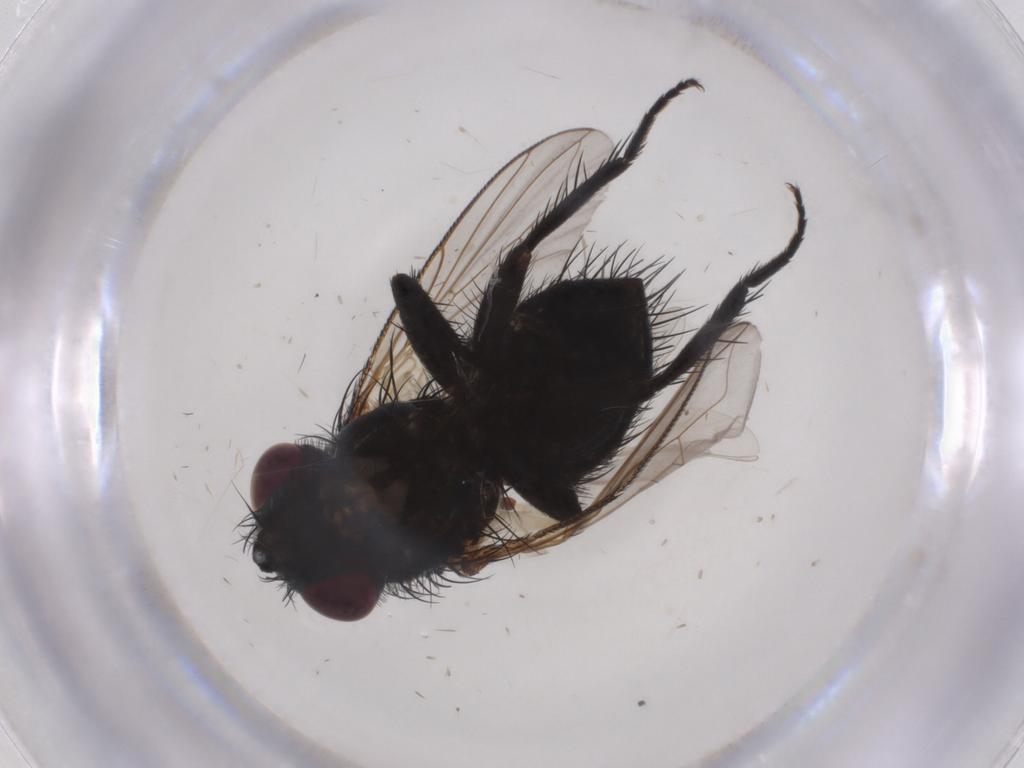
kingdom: Animalia
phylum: Arthropoda
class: Insecta
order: Diptera
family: Tachinidae
